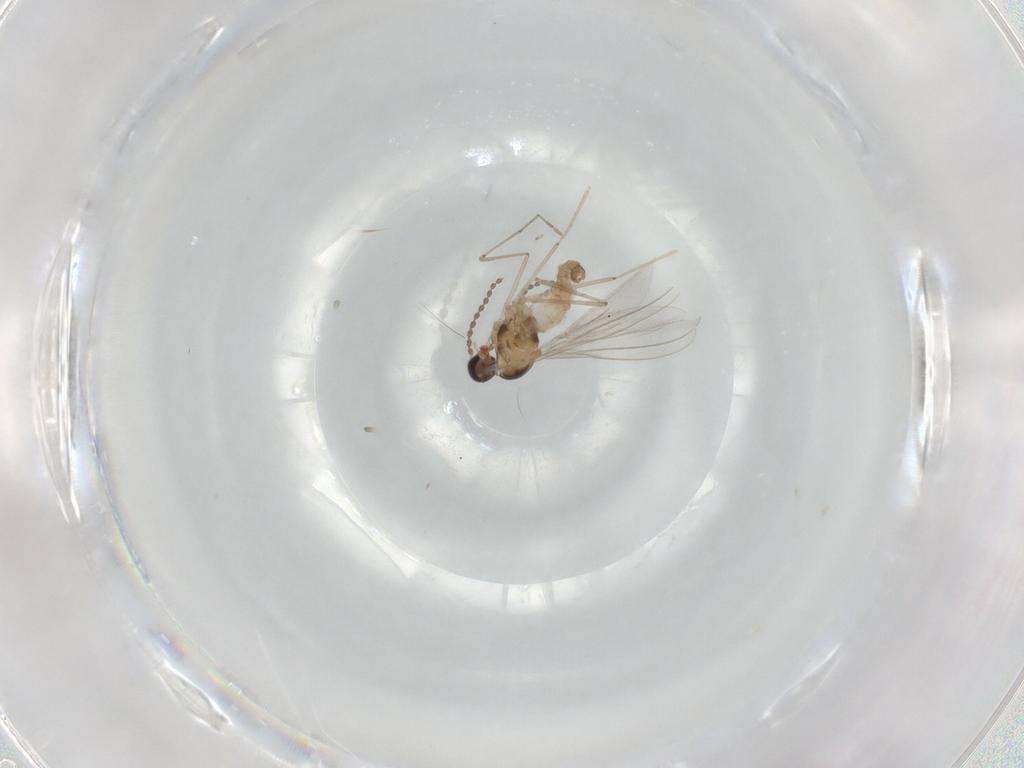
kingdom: Animalia
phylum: Arthropoda
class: Insecta
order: Diptera
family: Cecidomyiidae
